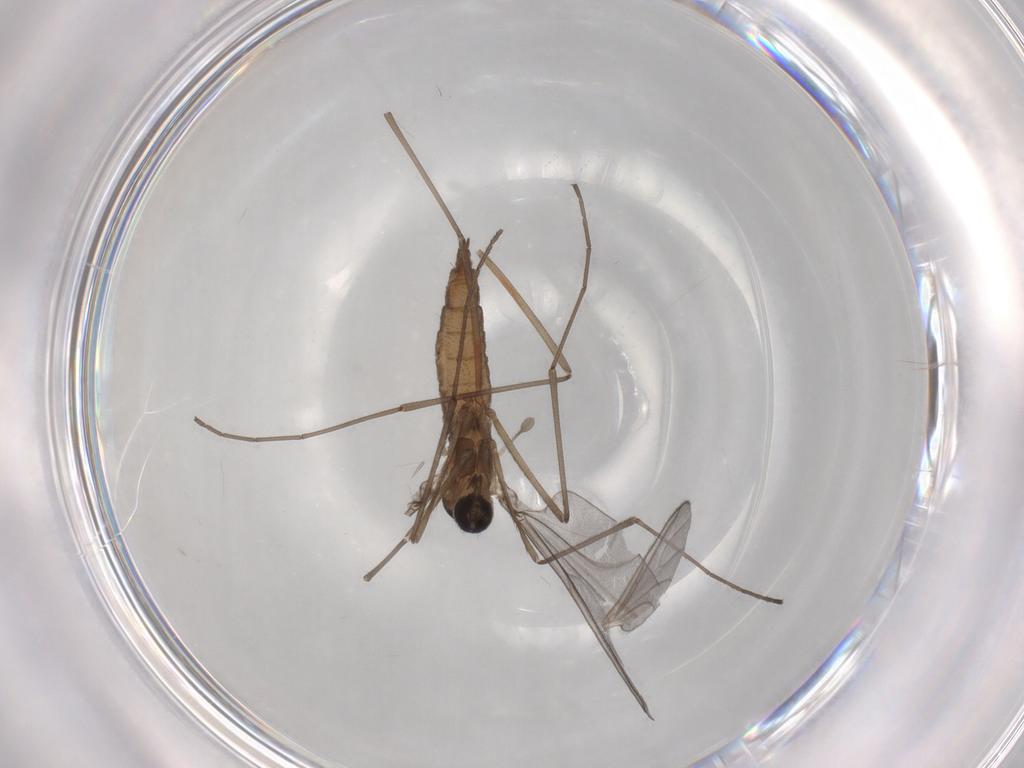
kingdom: Animalia
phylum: Arthropoda
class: Insecta
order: Diptera
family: Cecidomyiidae
